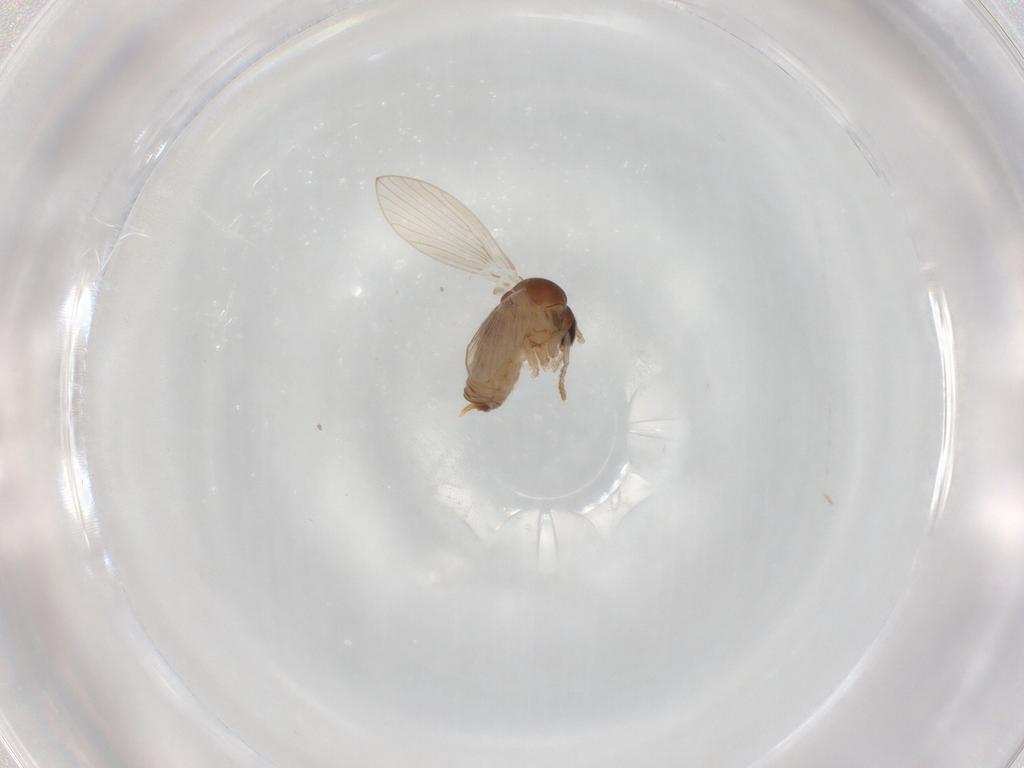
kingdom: Animalia
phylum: Arthropoda
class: Insecta
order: Diptera
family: Psychodidae
